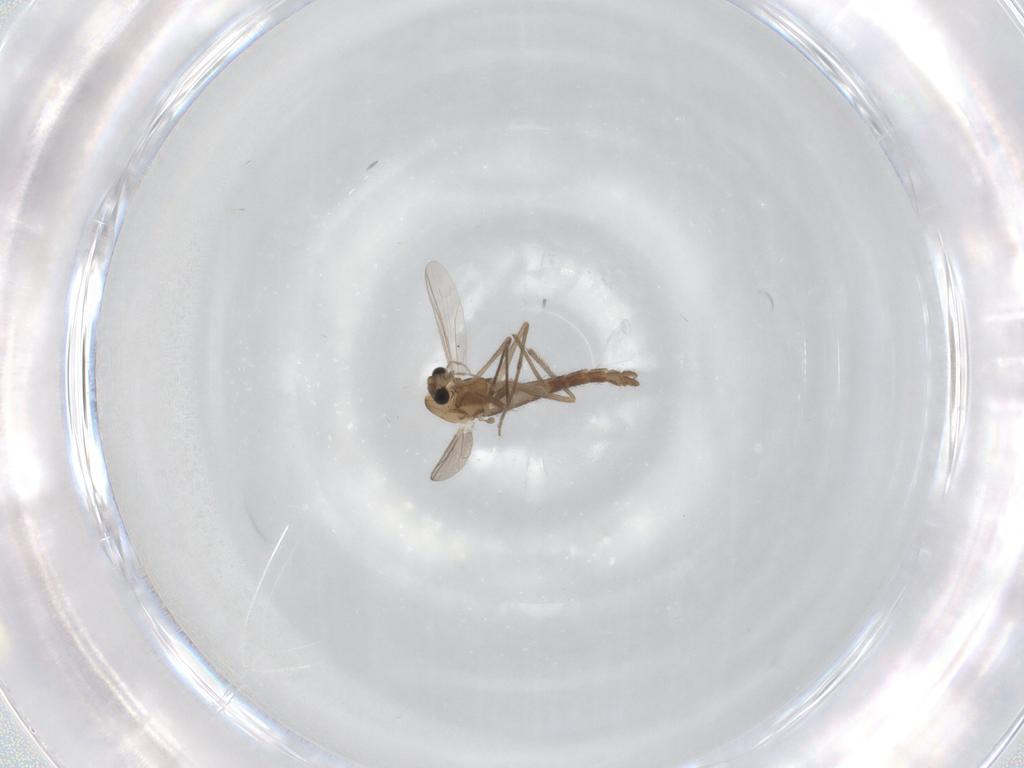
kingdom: Animalia
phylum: Arthropoda
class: Insecta
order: Diptera
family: Chironomidae
